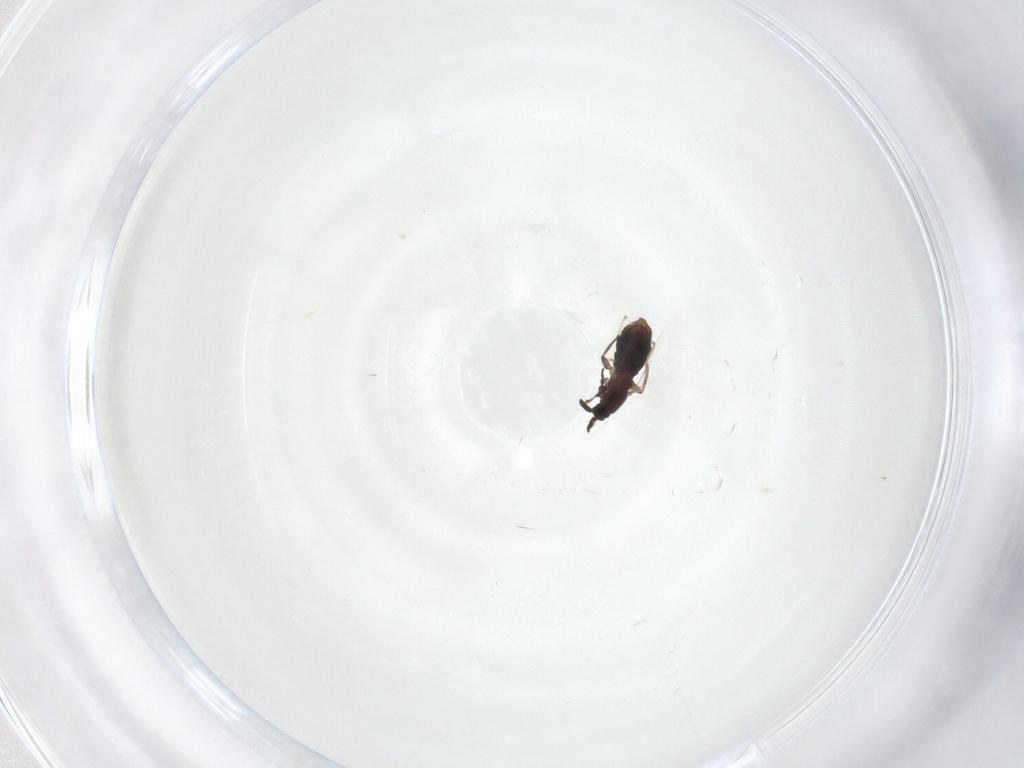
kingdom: Animalia
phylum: Arthropoda
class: Insecta
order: Diptera
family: Scatopsidae
